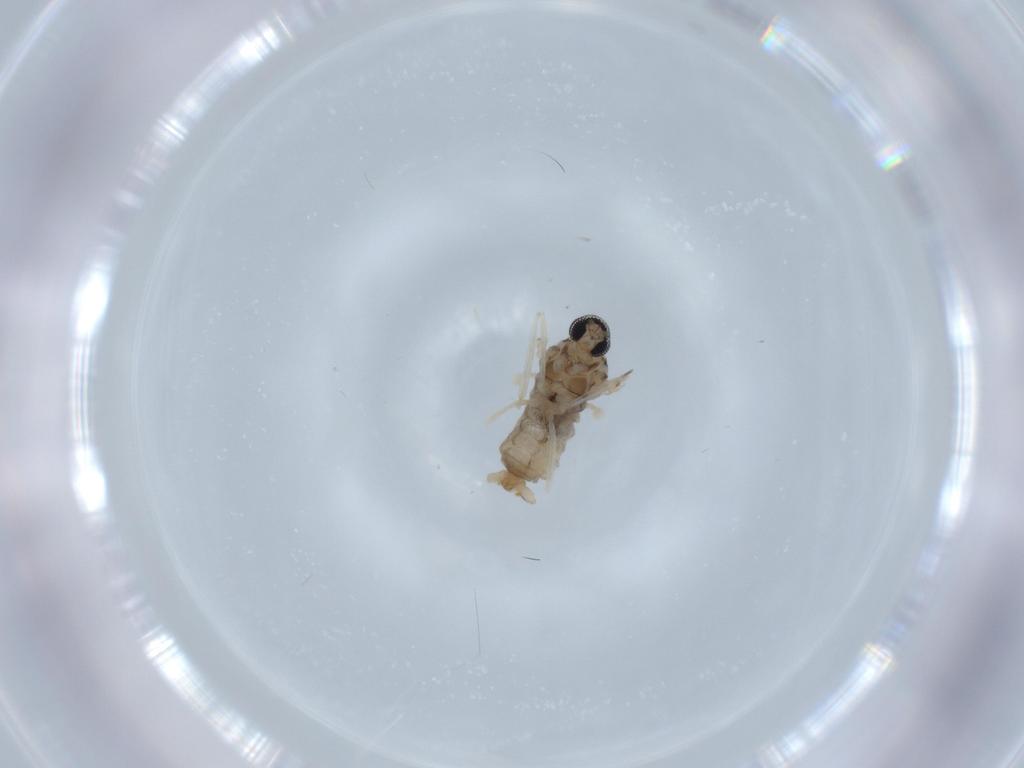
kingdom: Animalia
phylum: Arthropoda
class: Insecta
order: Diptera
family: Cecidomyiidae
